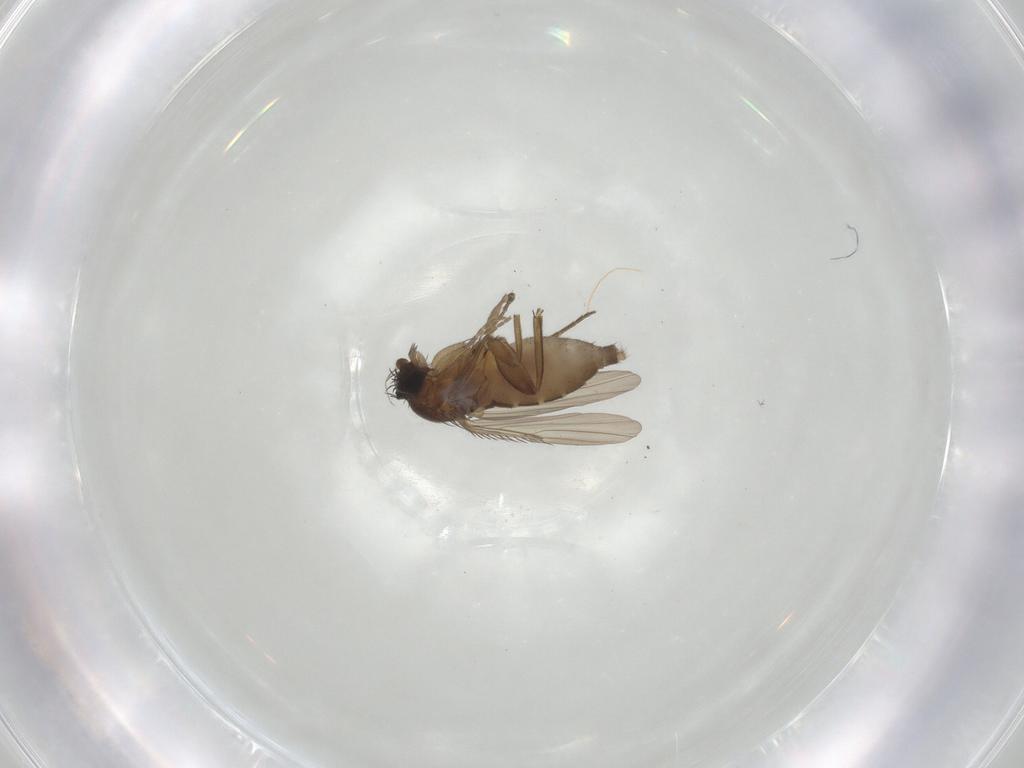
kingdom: Animalia
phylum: Arthropoda
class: Insecta
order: Diptera
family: Phoridae
